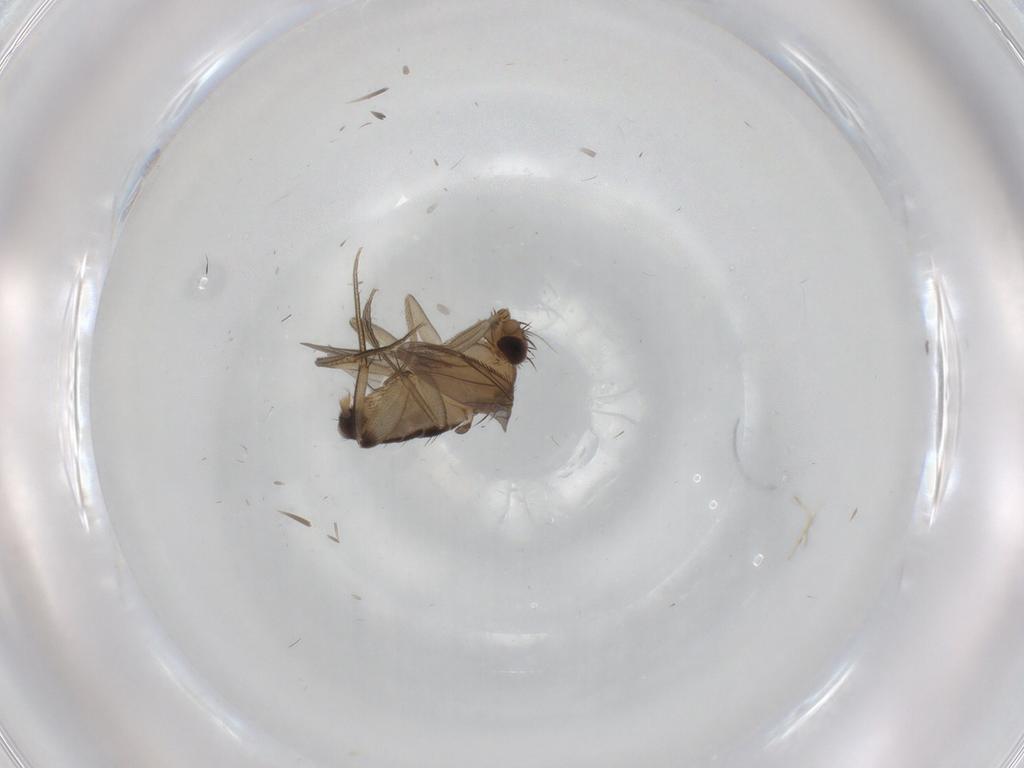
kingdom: Animalia
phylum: Arthropoda
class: Insecta
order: Diptera
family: Phoridae
